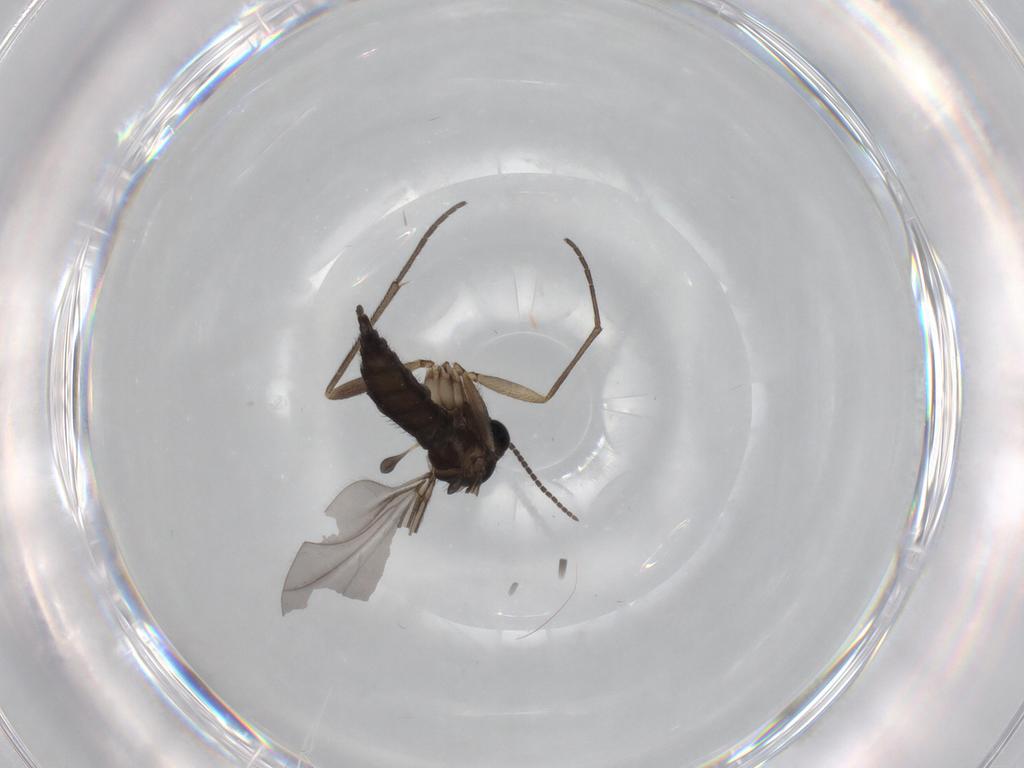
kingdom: Animalia
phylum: Arthropoda
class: Insecta
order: Diptera
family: Sciaridae
